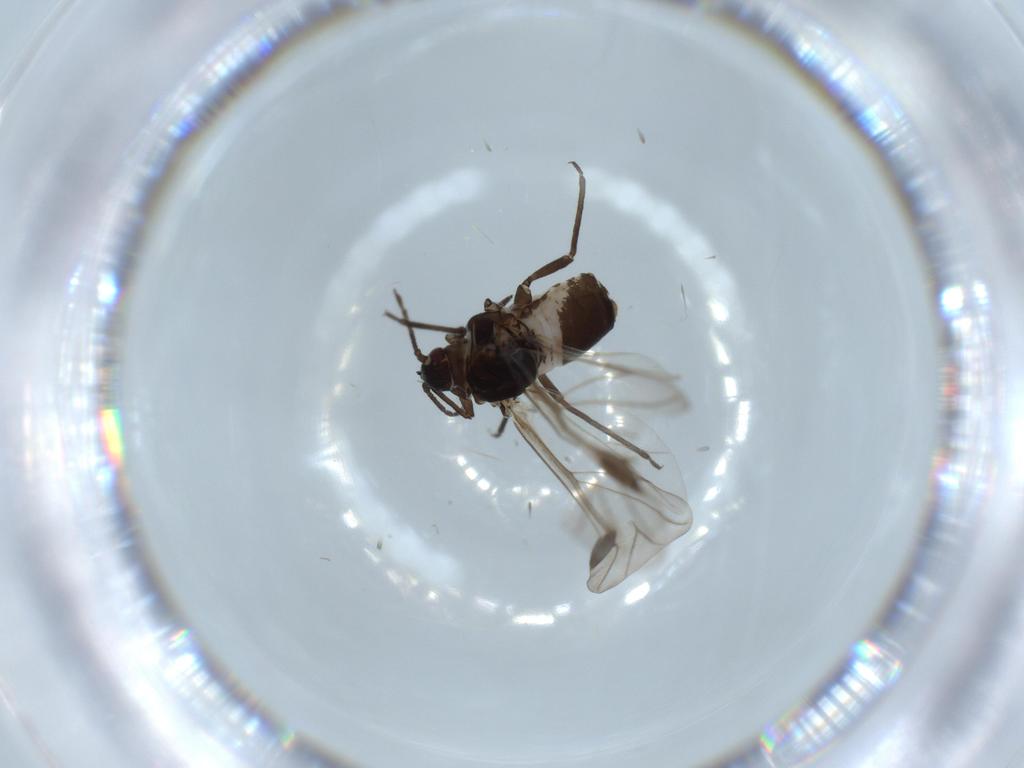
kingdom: Animalia
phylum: Arthropoda
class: Insecta
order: Hemiptera
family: Aphididae
